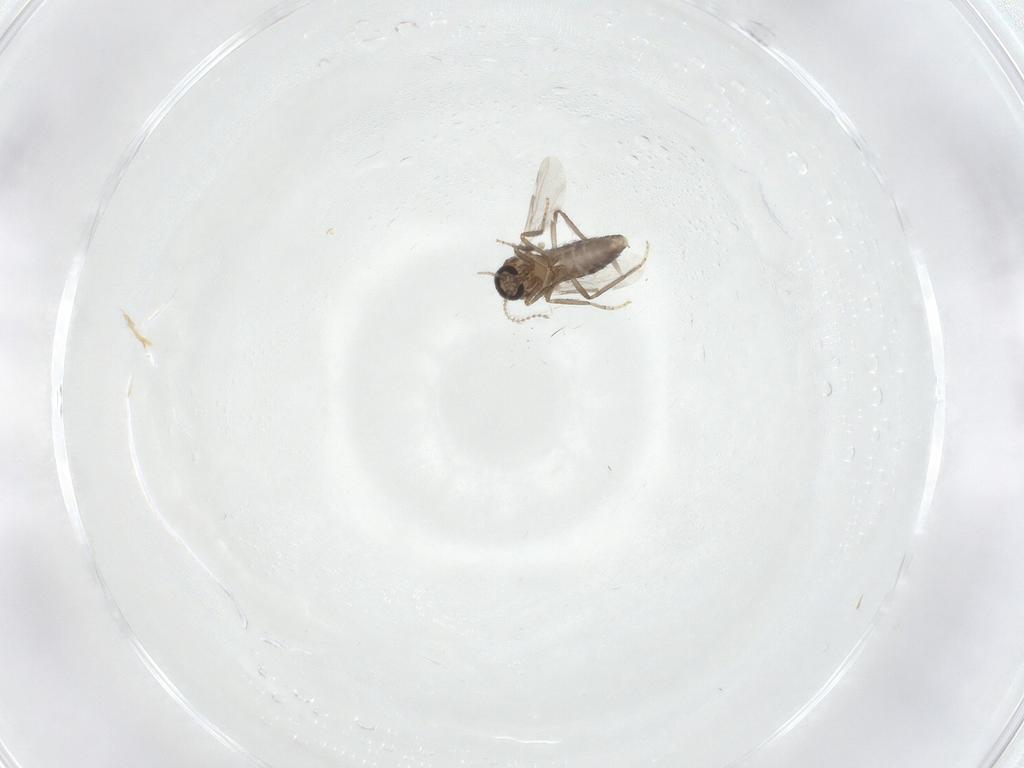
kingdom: Animalia
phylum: Arthropoda
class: Insecta
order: Diptera
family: Ceratopogonidae
